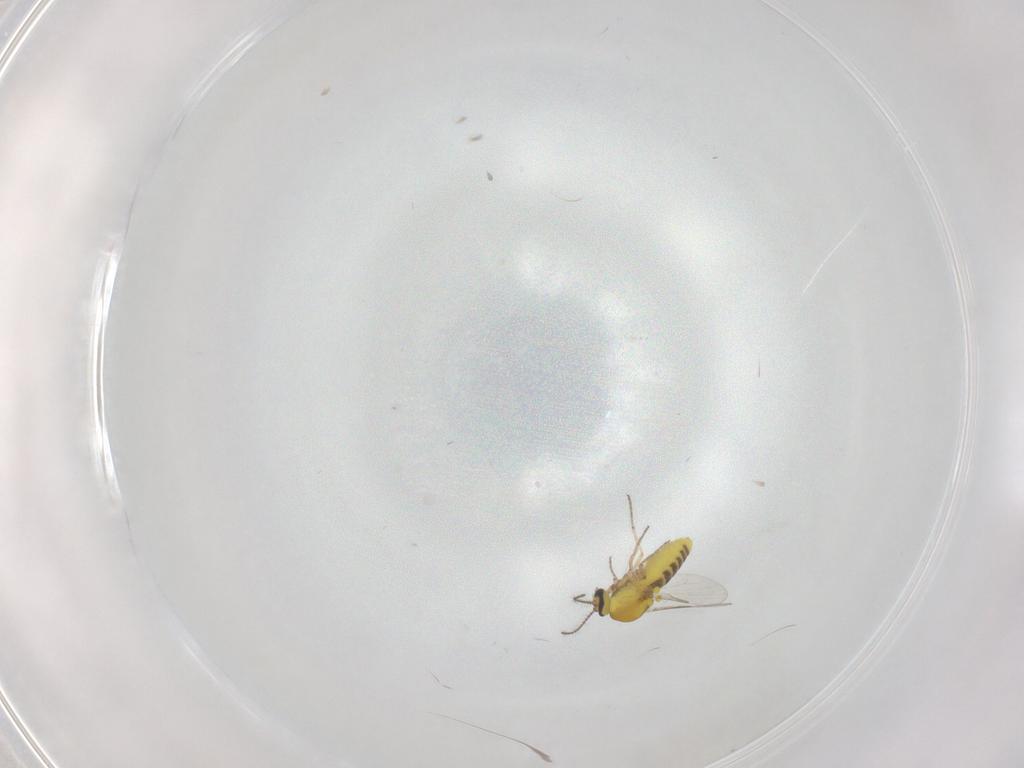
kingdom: Animalia
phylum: Arthropoda
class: Insecta
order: Diptera
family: Ceratopogonidae
